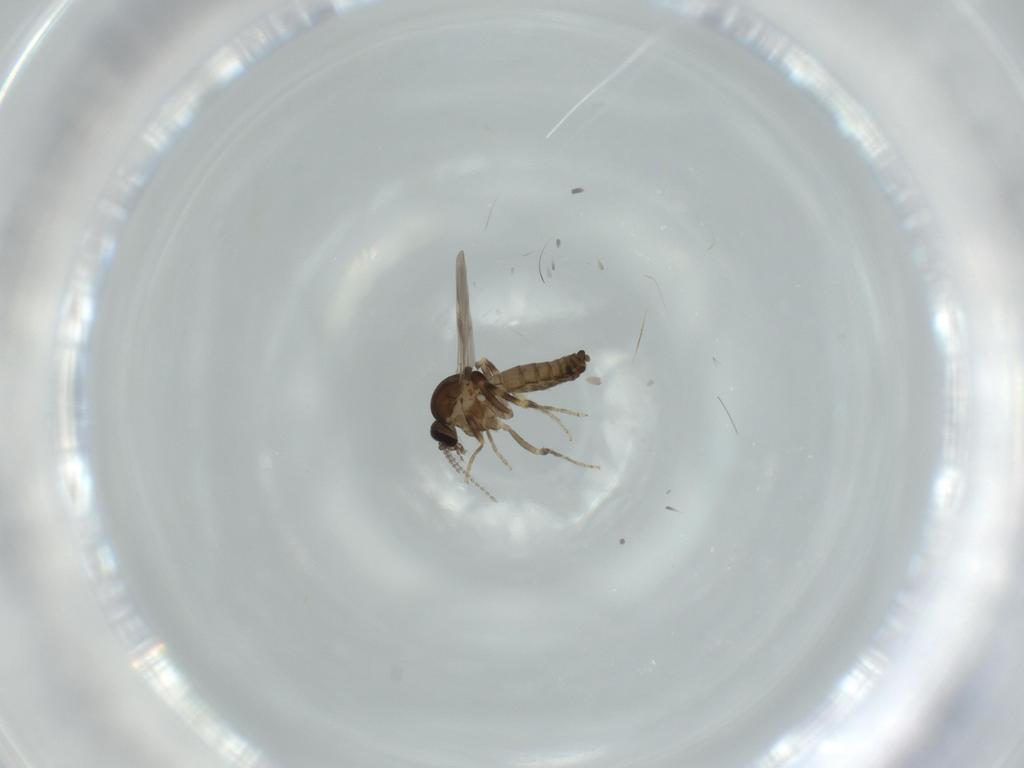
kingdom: Animalia
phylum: Arthropoda
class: Insecta
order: Diptera
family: Ceratopogonidae
